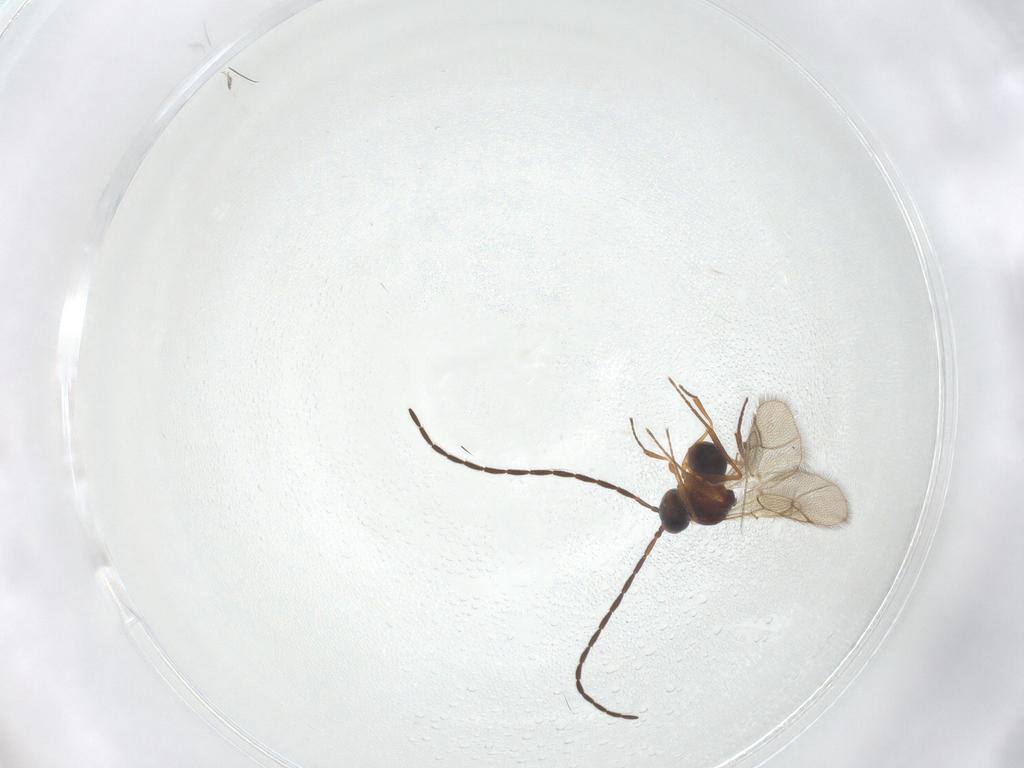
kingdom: Animalia
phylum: Arthropoda
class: Insecta
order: Hymenoptera
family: Figitidae
